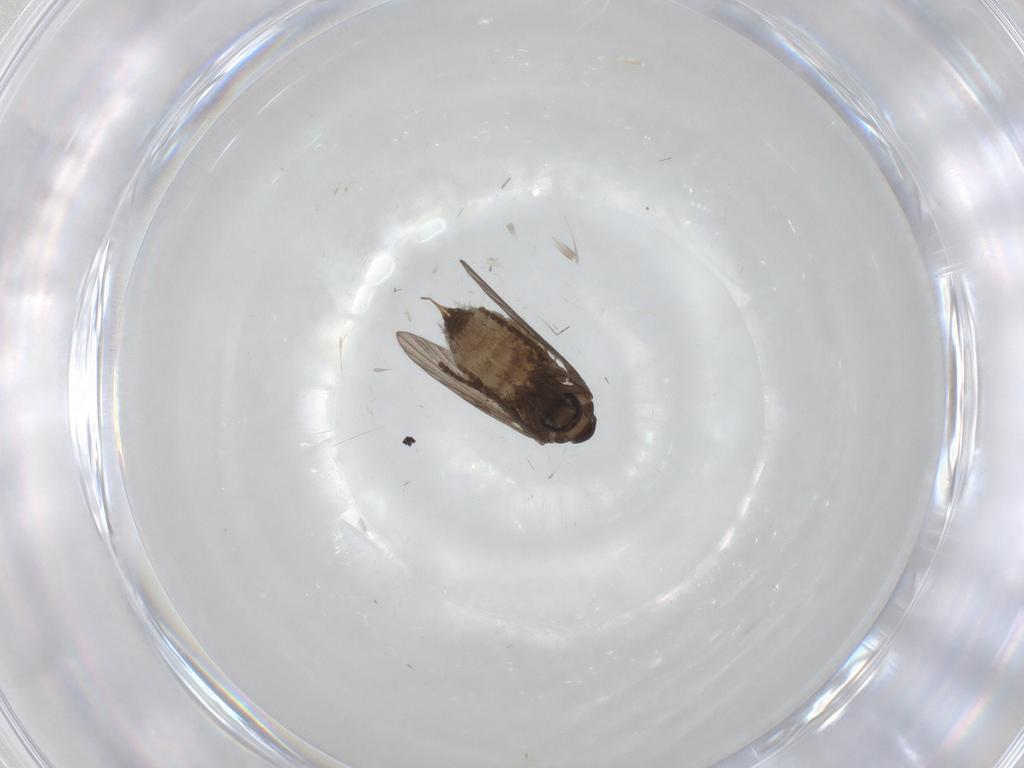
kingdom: Animalia
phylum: Arthropoda
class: Insecta
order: Diptera
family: Psychodidae
